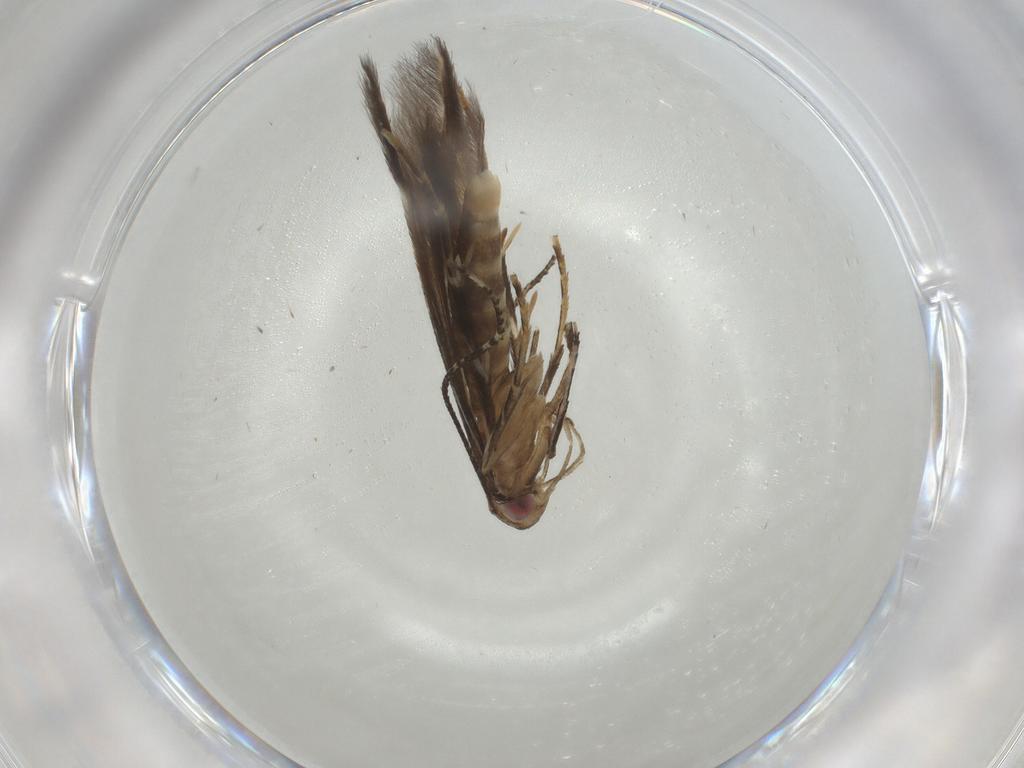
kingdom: Animalia
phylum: Arthropoda
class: Insecta
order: Lepidoptera
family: Cosmopterigidae
